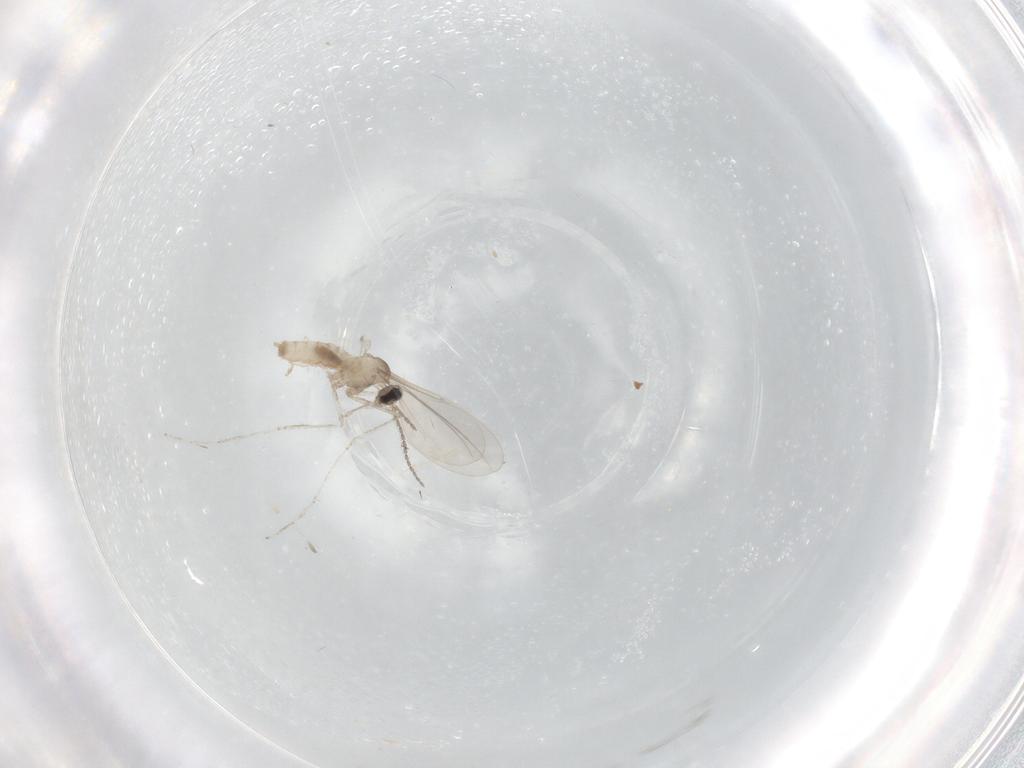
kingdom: Animalia
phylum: Arthropoda
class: Insecta
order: Diptera
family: Cecidomyiidae
